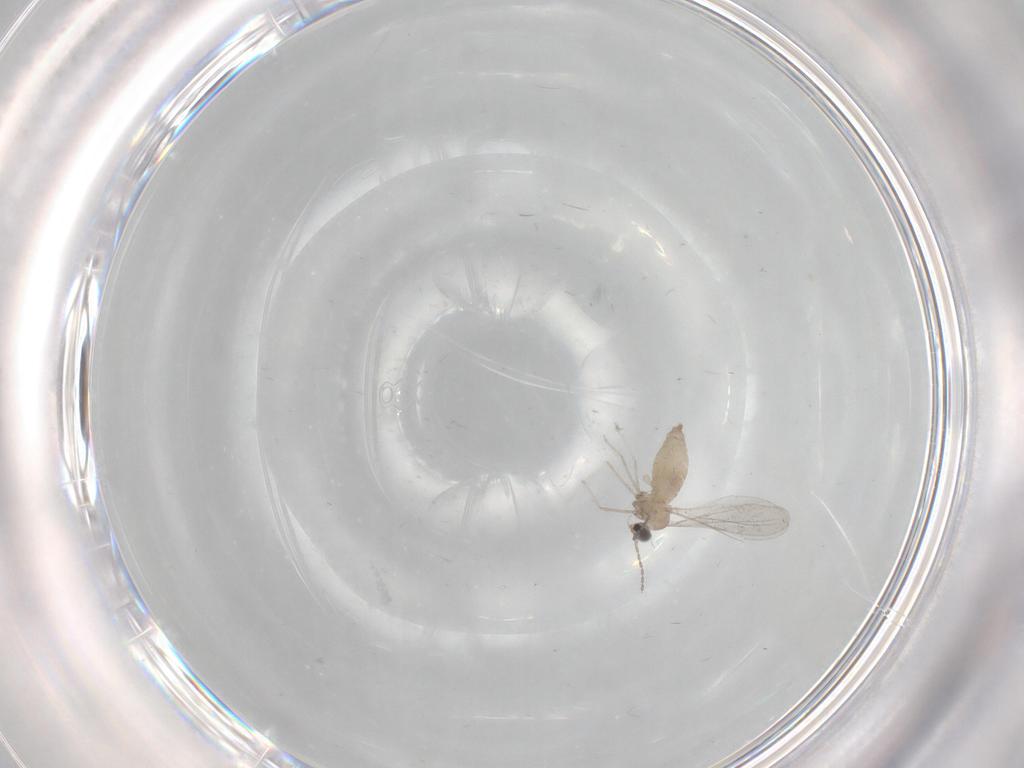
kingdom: Animalia
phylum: Arthropoda
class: Insecta
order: Diptera
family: Cecidomyiidae
